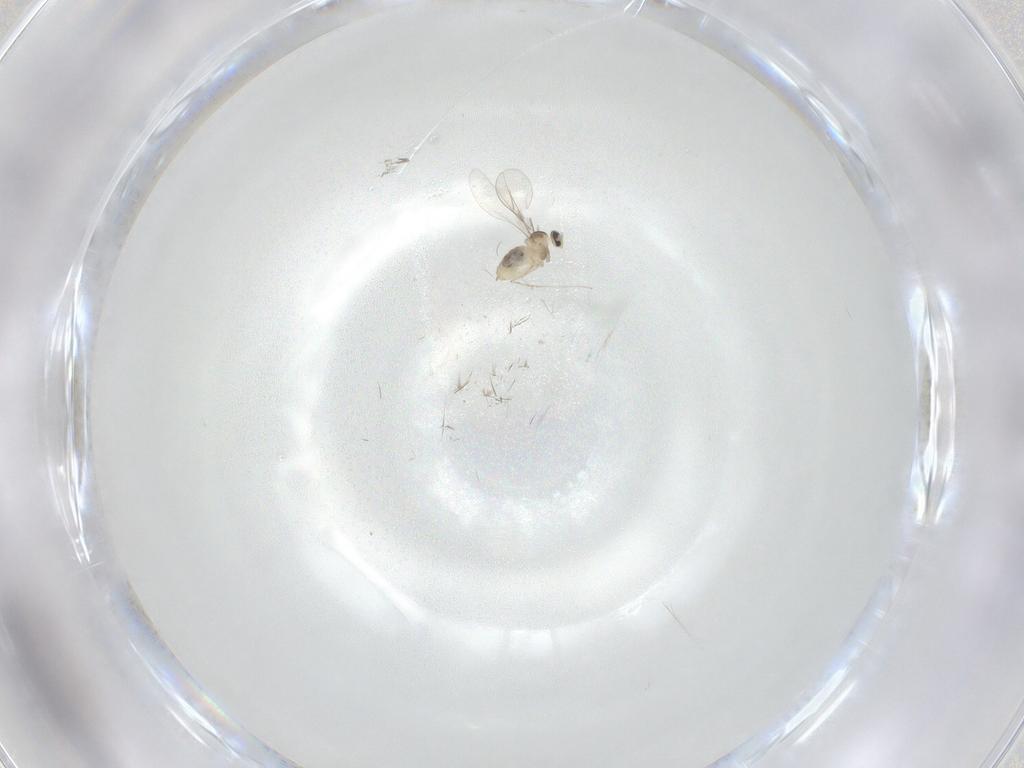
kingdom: Animalia
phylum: Arthropoda
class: Insecta
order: Diptera
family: Cecidomyiidae
